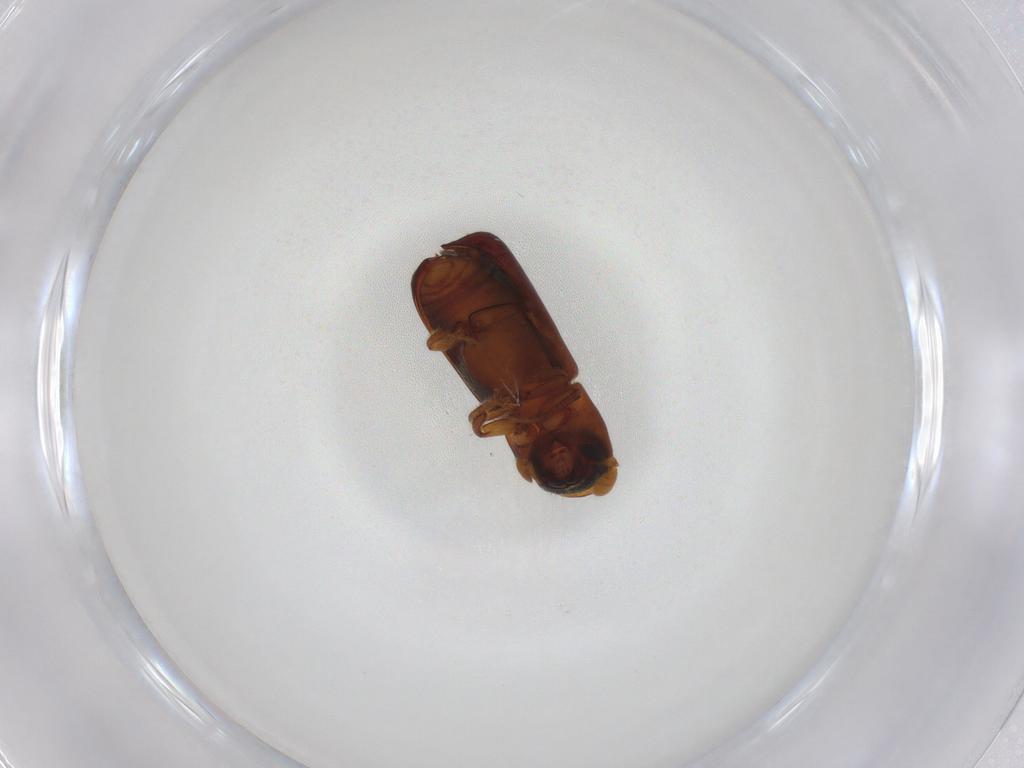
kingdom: Animalia
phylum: Arthropoda
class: Insecta
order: Coleoptera
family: Curculionidae
